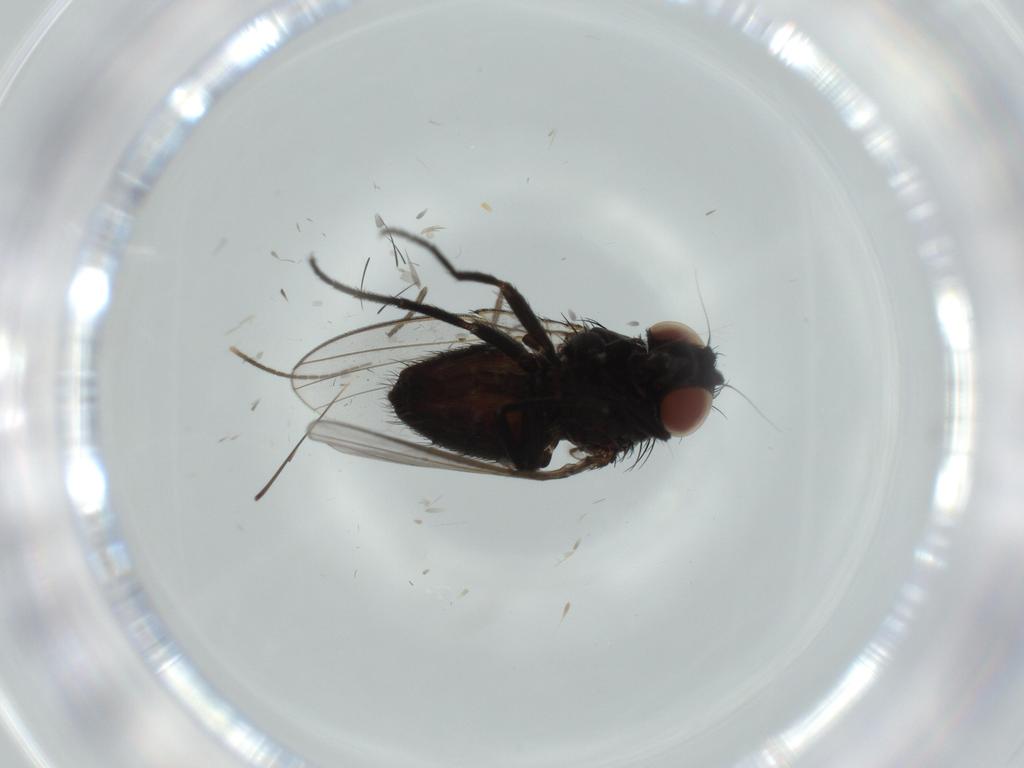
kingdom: Animalia
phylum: Arthropoda
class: Insecta
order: Diptera
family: Milichiidae
